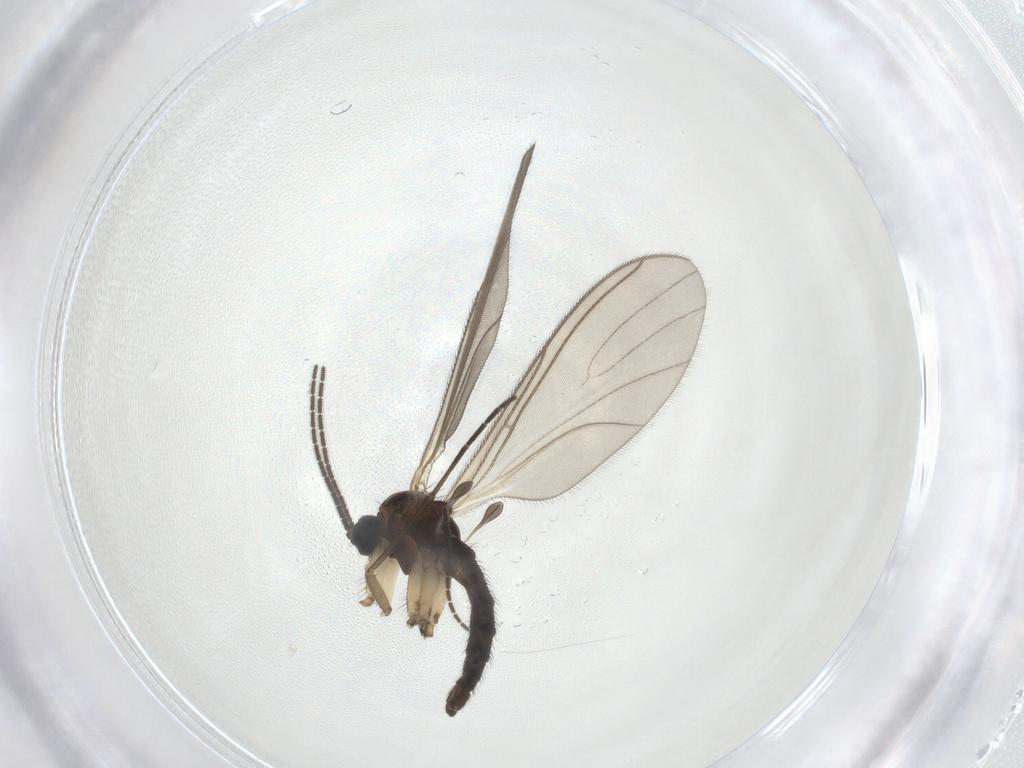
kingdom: Animalia
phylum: Arthropoda
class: Insecta
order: Diptera
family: Sciaridae
